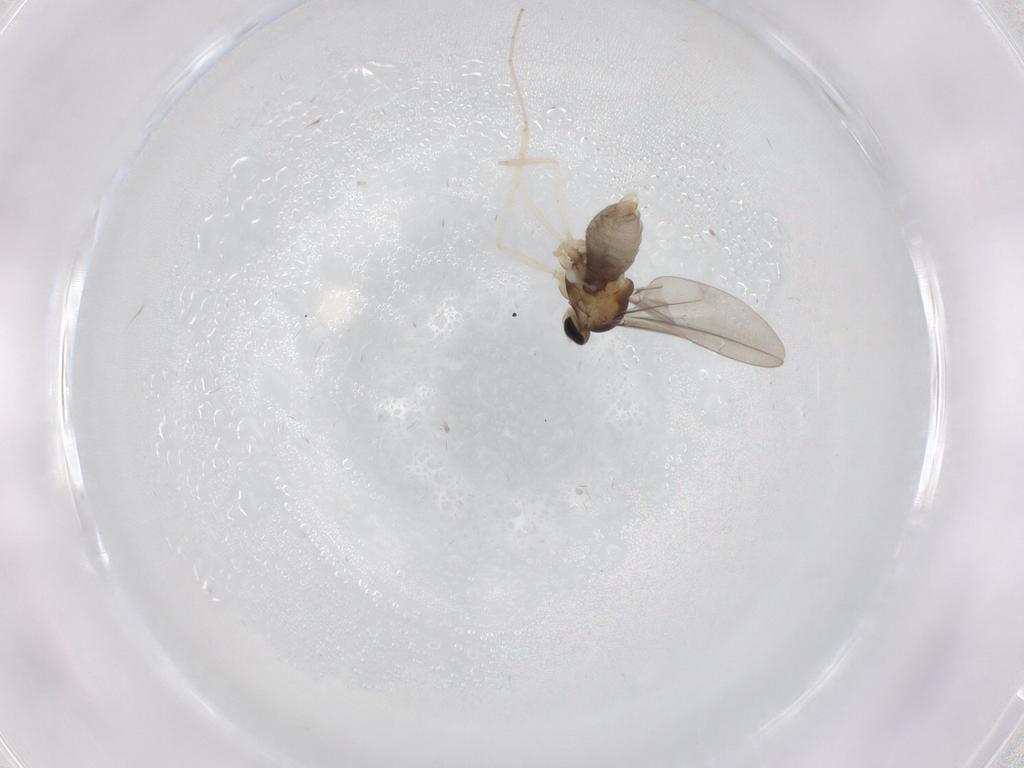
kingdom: Animalia
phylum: Arthropoda
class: Insecta
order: Diptera
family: Cecidomyiidae
